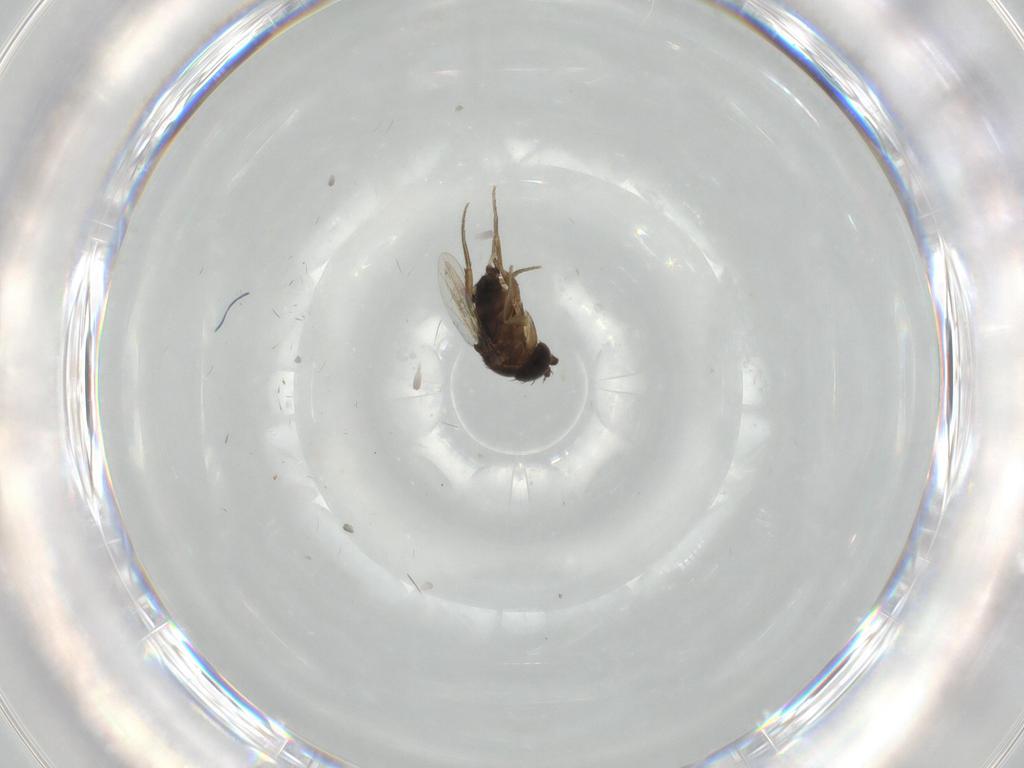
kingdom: Animalia
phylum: Arthropoda
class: Insecta
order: Diptera
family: Phoridae
